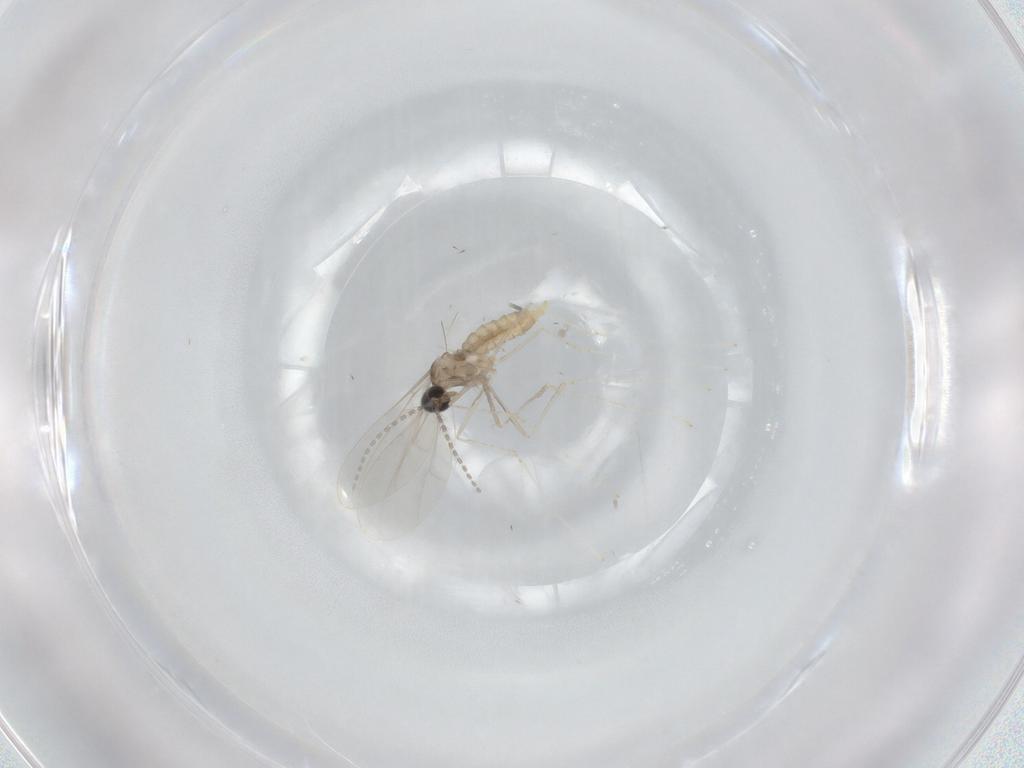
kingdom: Animalia
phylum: Arthropoda
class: Insecta
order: Diptera
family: Cecidomyiidae
